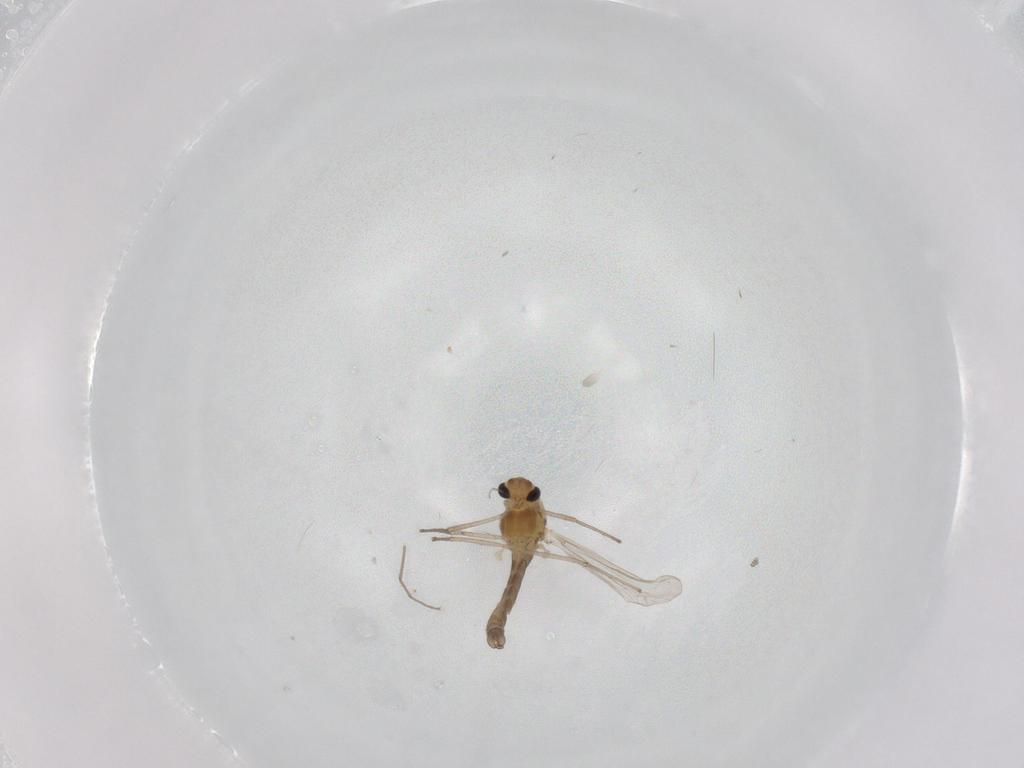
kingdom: Animalia
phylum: Arthropoda
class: Insecta
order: Diptera
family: Chironomidae
